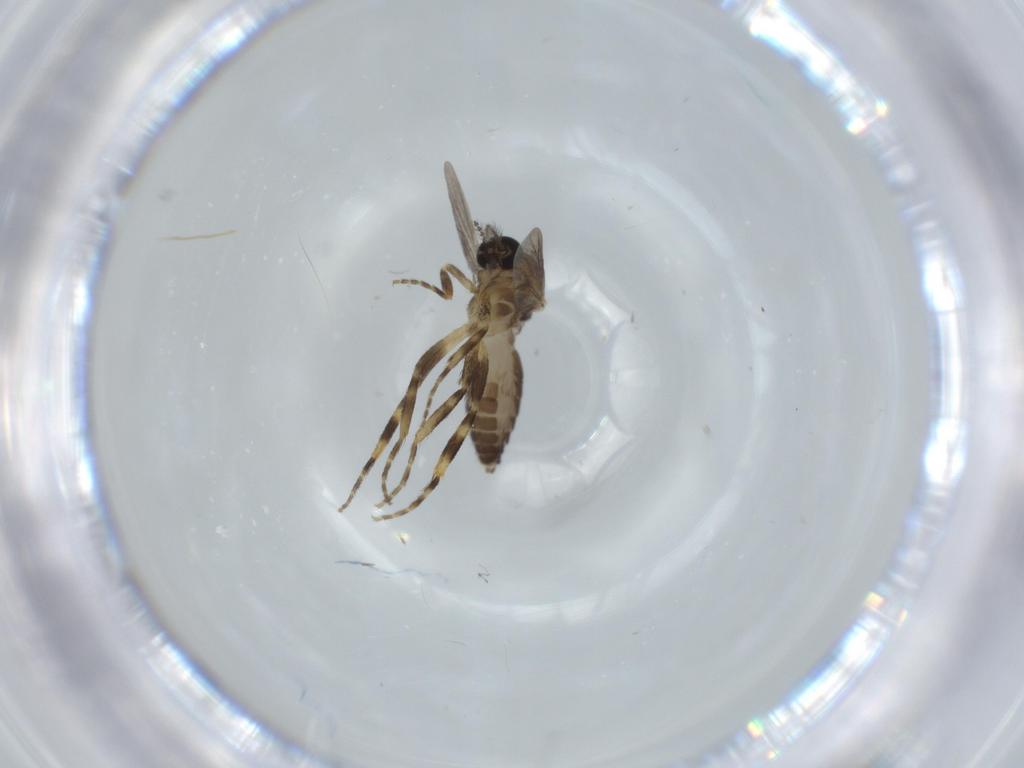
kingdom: Animalia
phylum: Arthropoda
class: Insecta
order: Diptera
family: Ceratopogonidae
